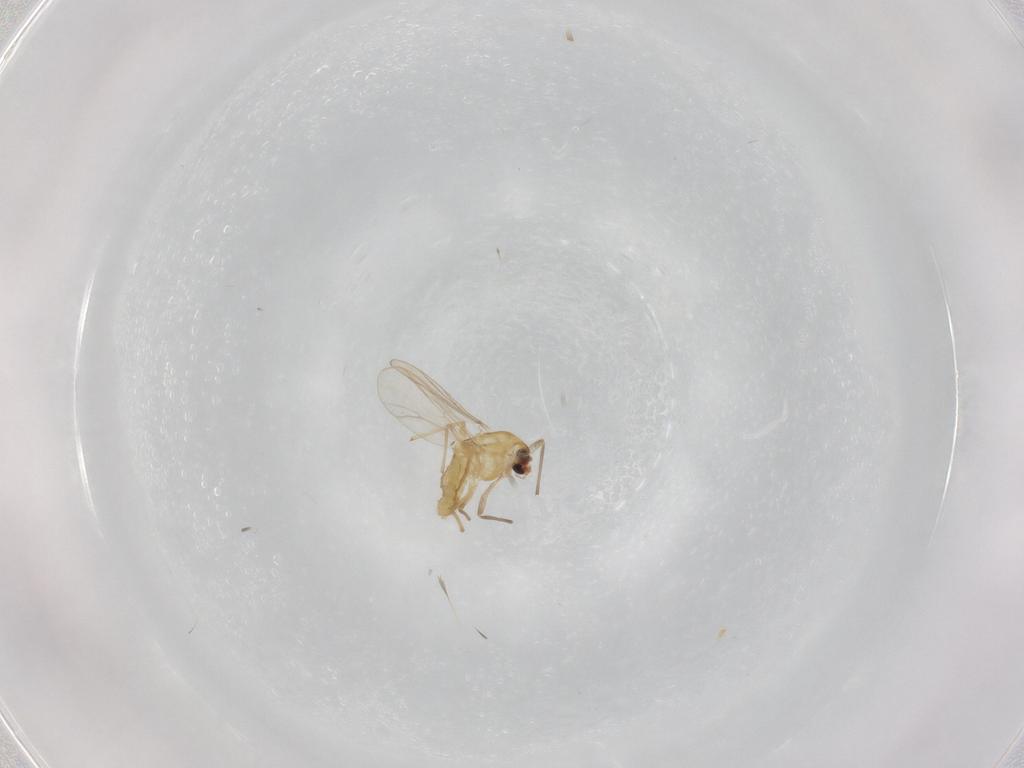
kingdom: Animalia
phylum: Arthropoda
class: Insecta
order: Diptera
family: Chironomidae
